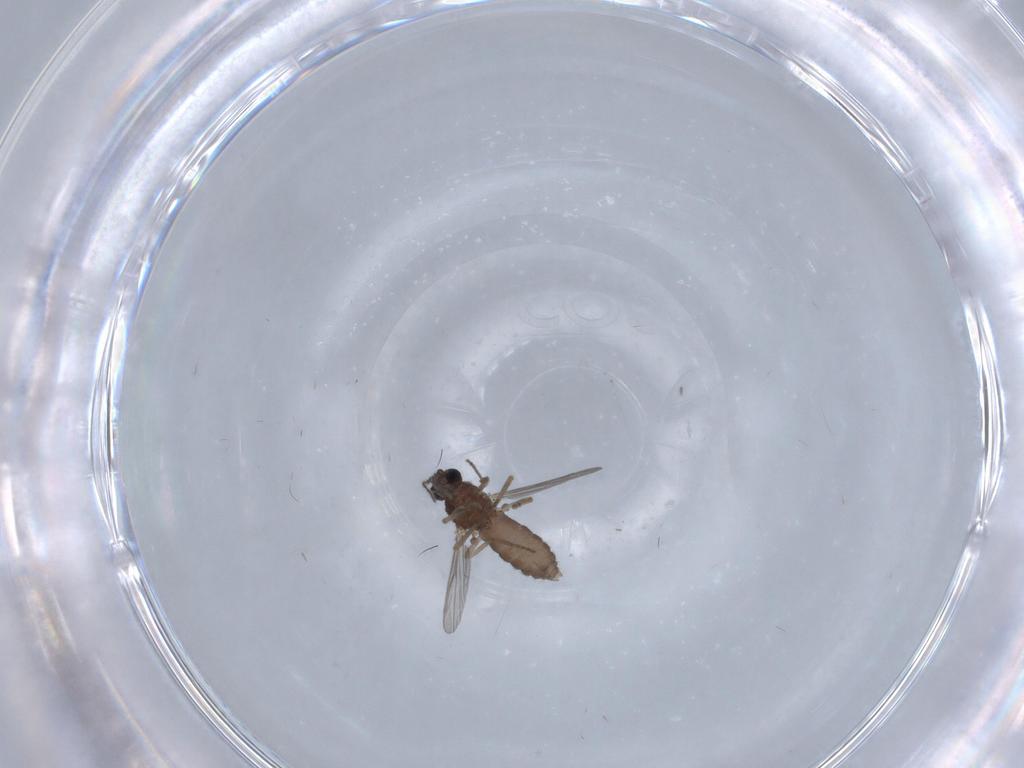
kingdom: Animalia
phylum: Arthropoda
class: Insecta
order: Diptera
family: Ceratopogonidae
